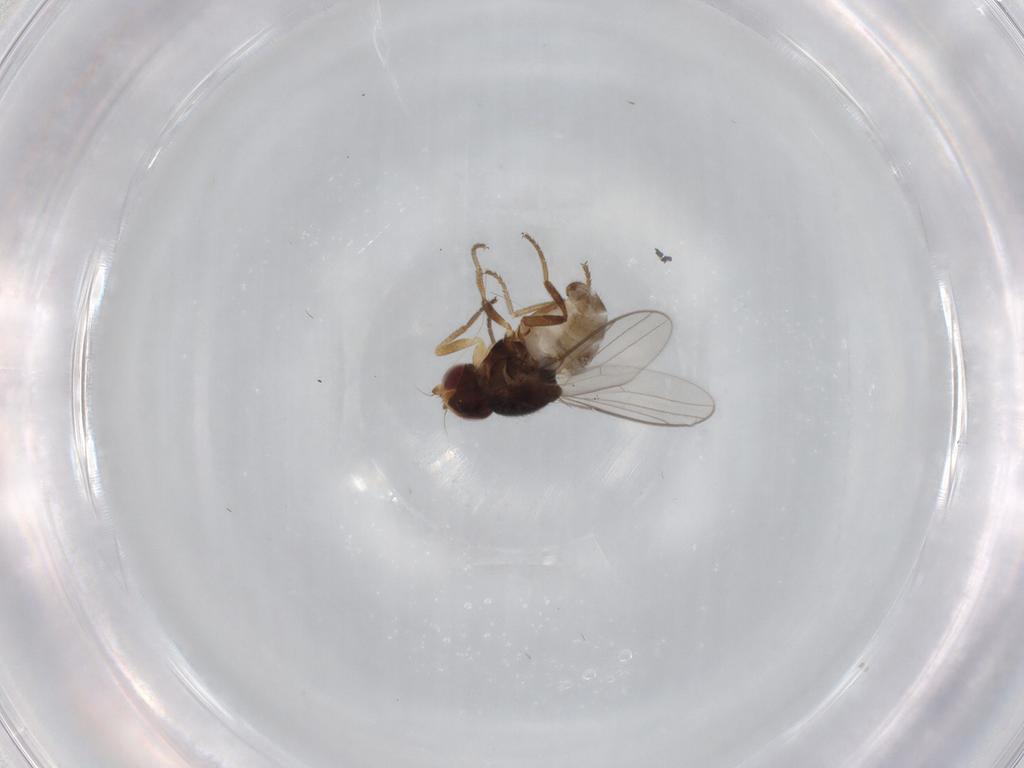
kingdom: Animalia
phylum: Arthropoda
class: Insecta
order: Diptera
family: Chloropidae
